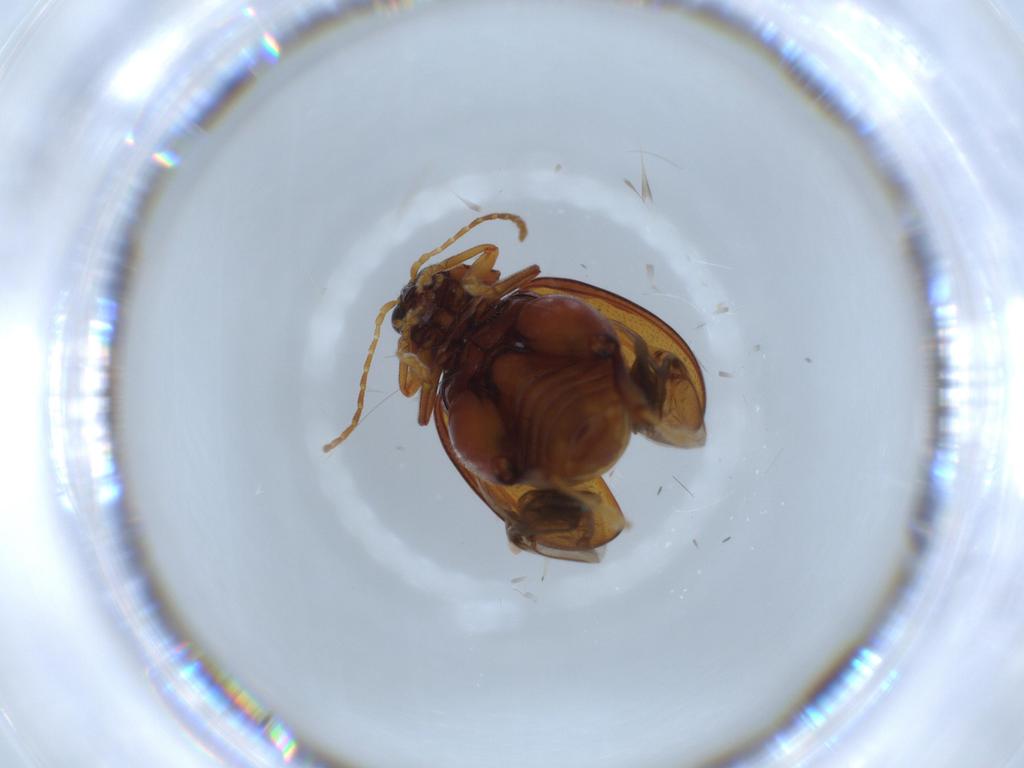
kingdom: Animalia
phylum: Arthropoda
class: Insecta
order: Coleoptera
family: Chrysomelidae
